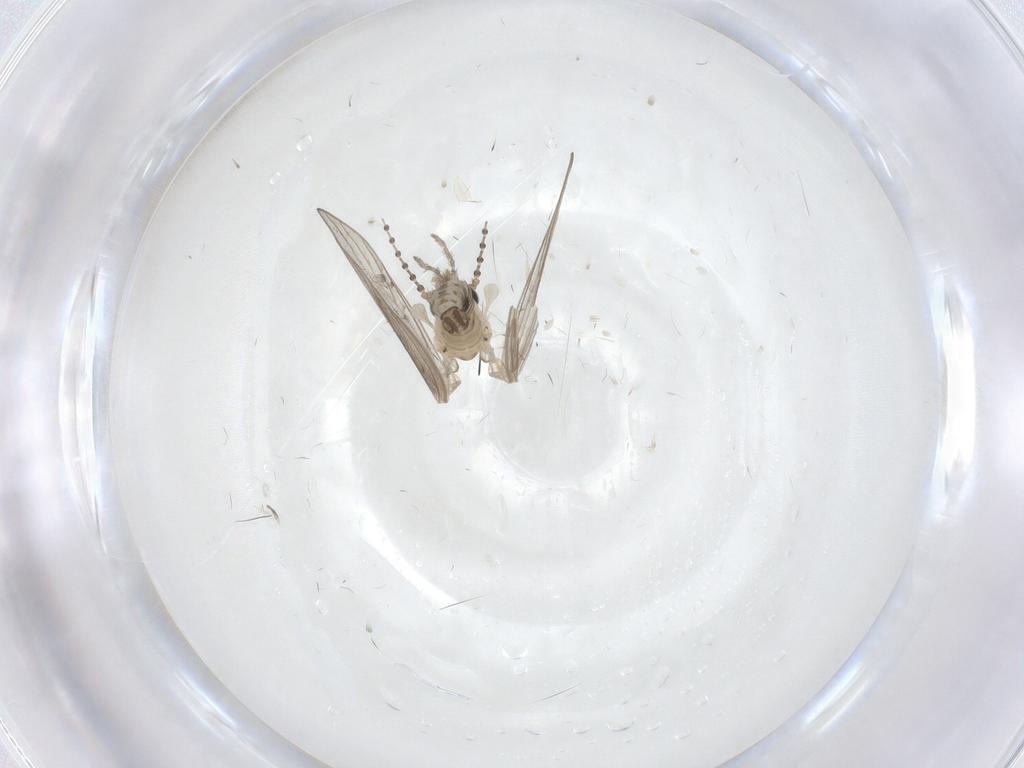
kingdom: Animalia
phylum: Arthropoda
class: Insecta
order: Diptera
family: Psychodidae
